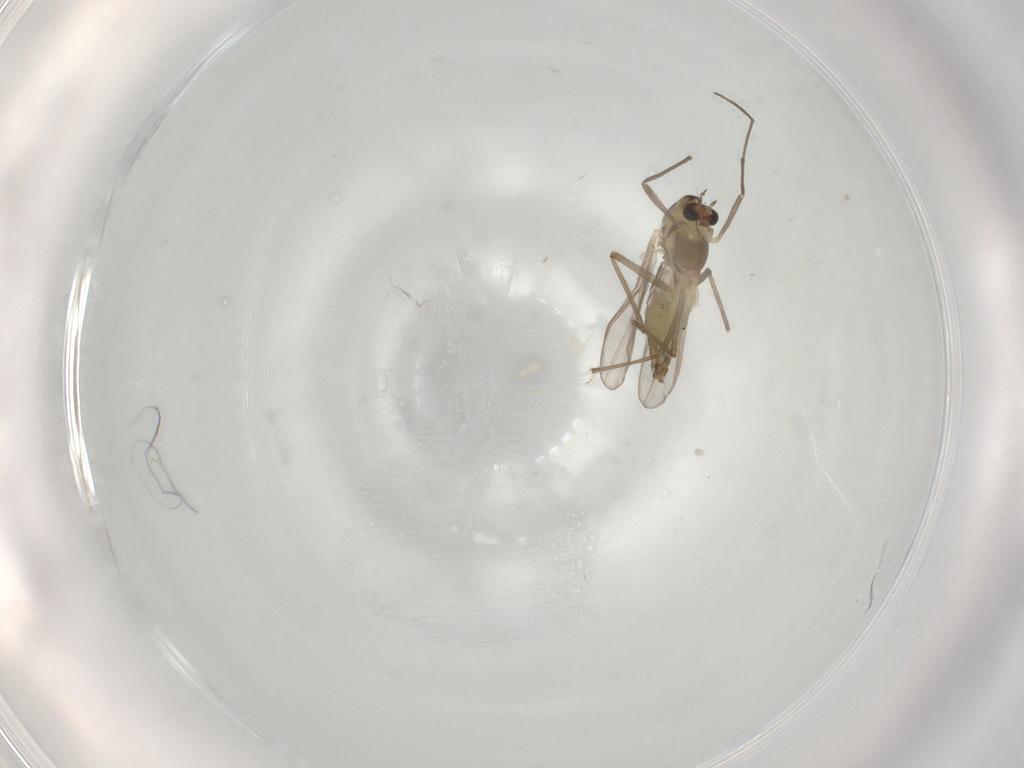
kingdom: Animalia
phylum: Arthropoda
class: Insecta
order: Diptera
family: Chironomidae
